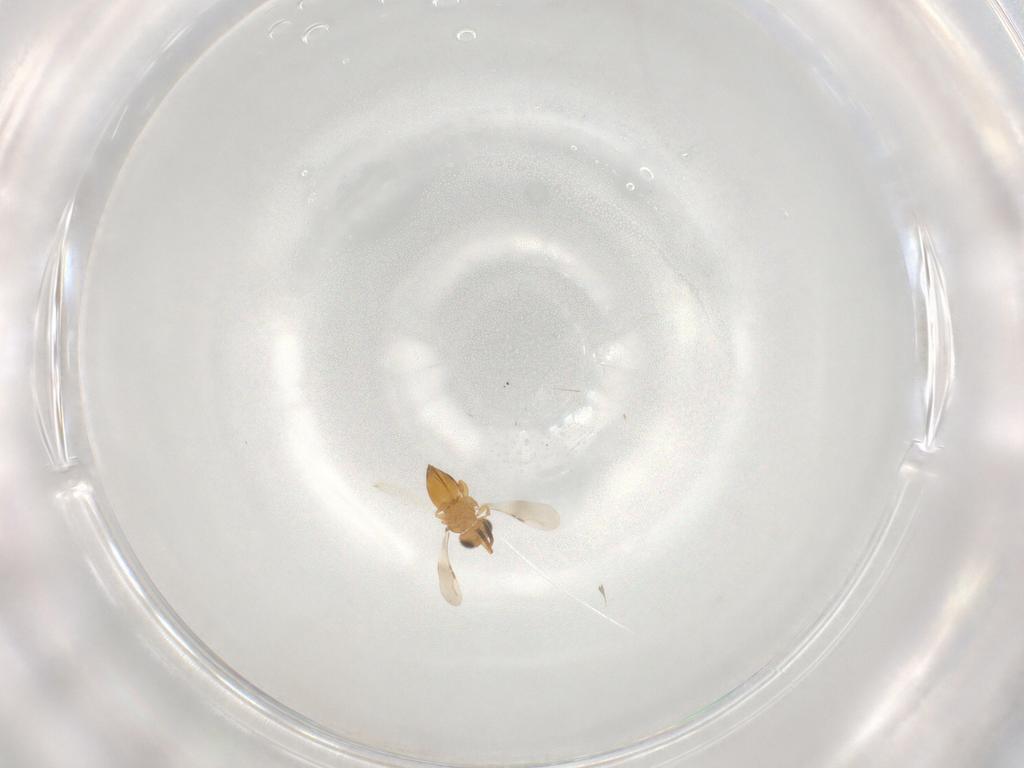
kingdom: Animalia
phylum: Arthropoda
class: Insecta
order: Hymenoptera
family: Ceraphronidae
